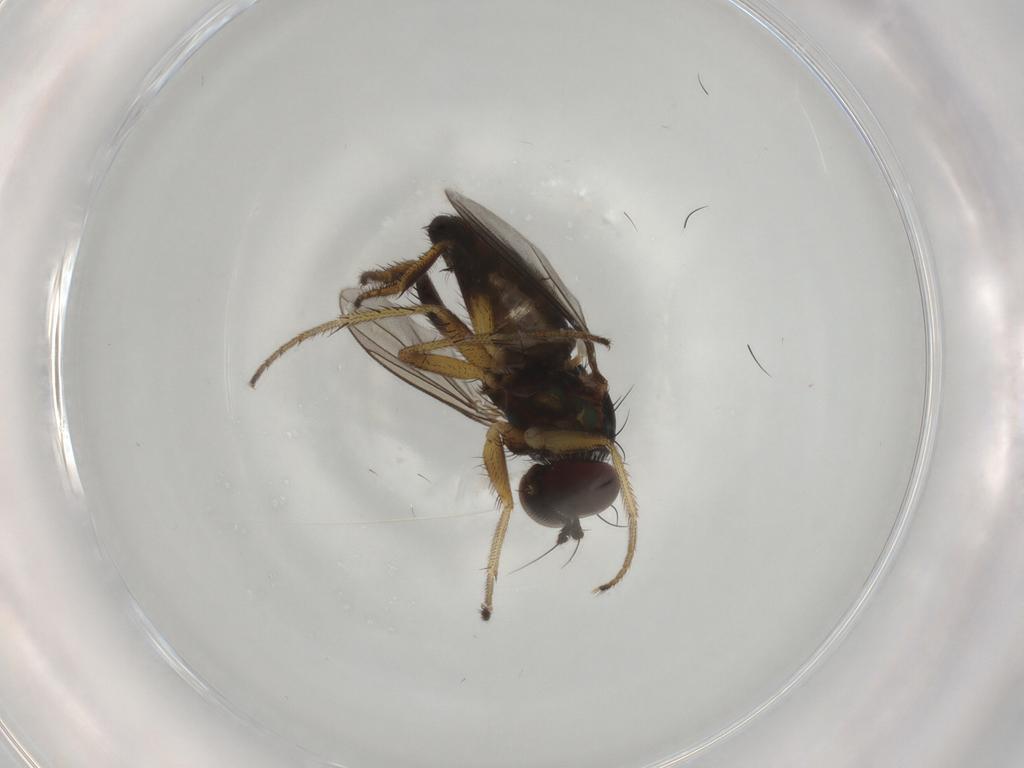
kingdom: Animalia
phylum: Arthropoda
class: Insecta
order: Diptera
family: Dolichopodidae
